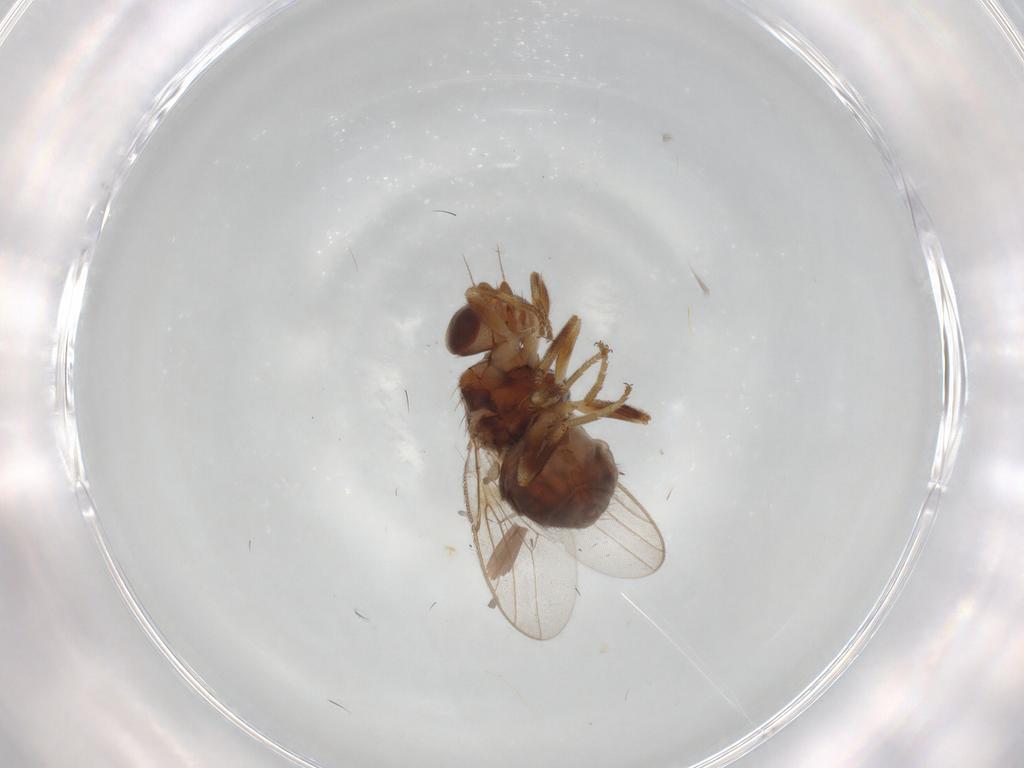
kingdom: Animalia
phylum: Arthropoda
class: Insecta
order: Diptera
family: Chloropidae
